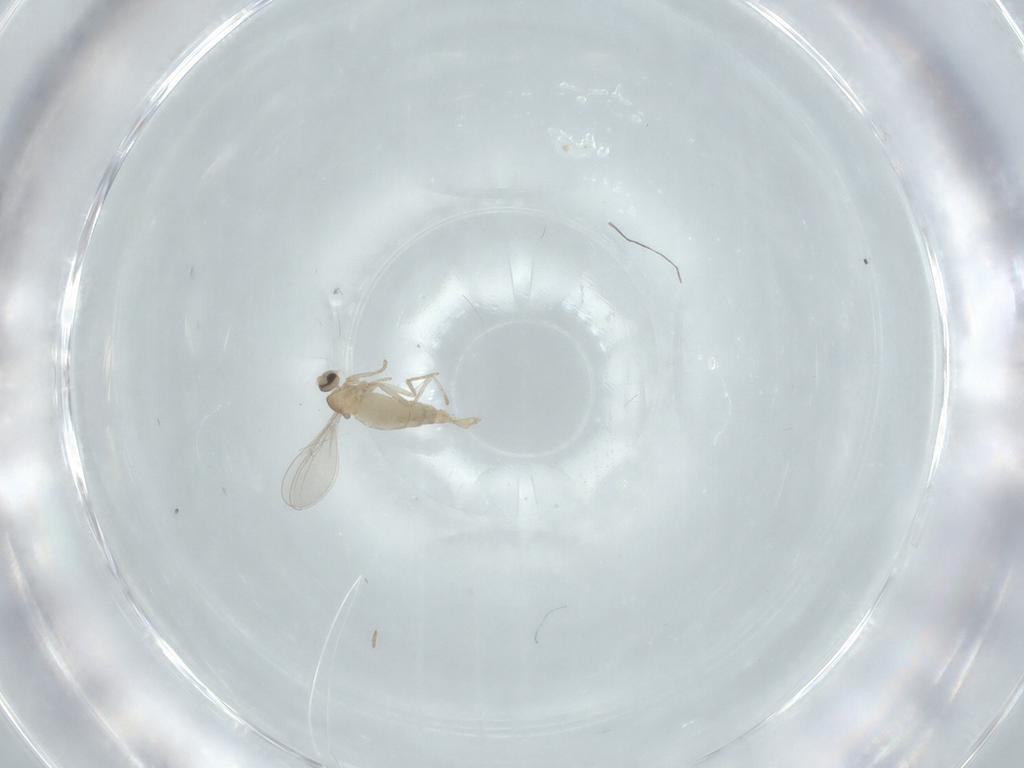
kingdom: Animalia
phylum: Arthropoda
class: Insecta
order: Diptera
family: Cecidomyiidae
